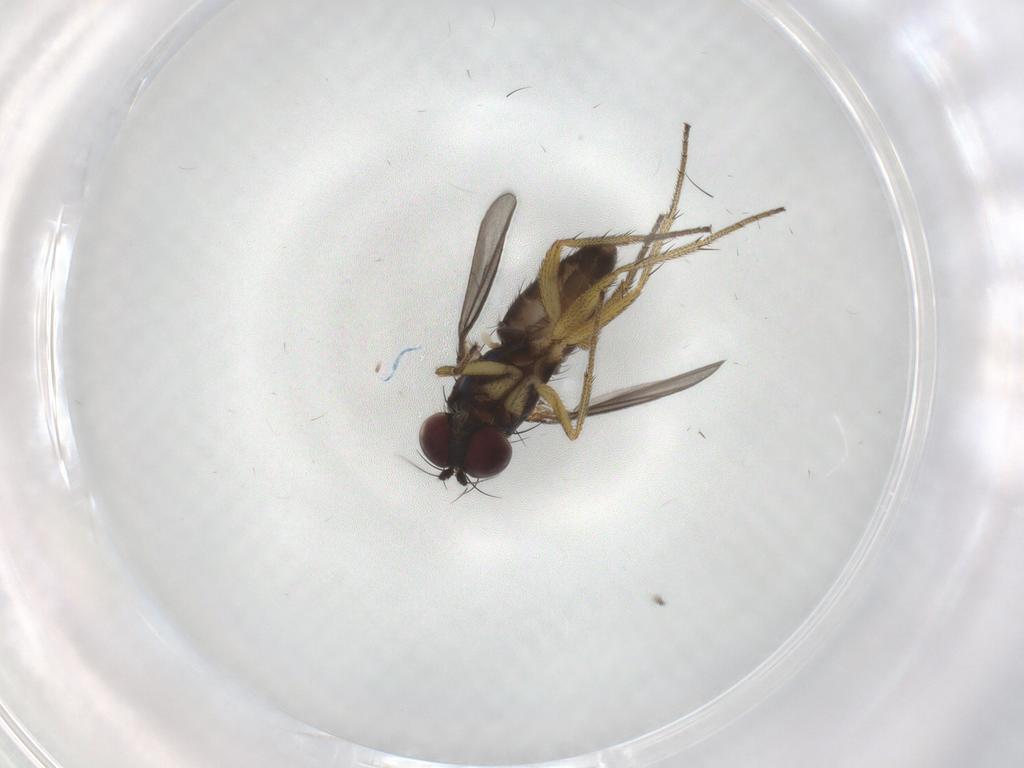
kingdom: Animalia
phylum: Arthropoda
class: Insecta
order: Diptera
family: Dolichopodidae
